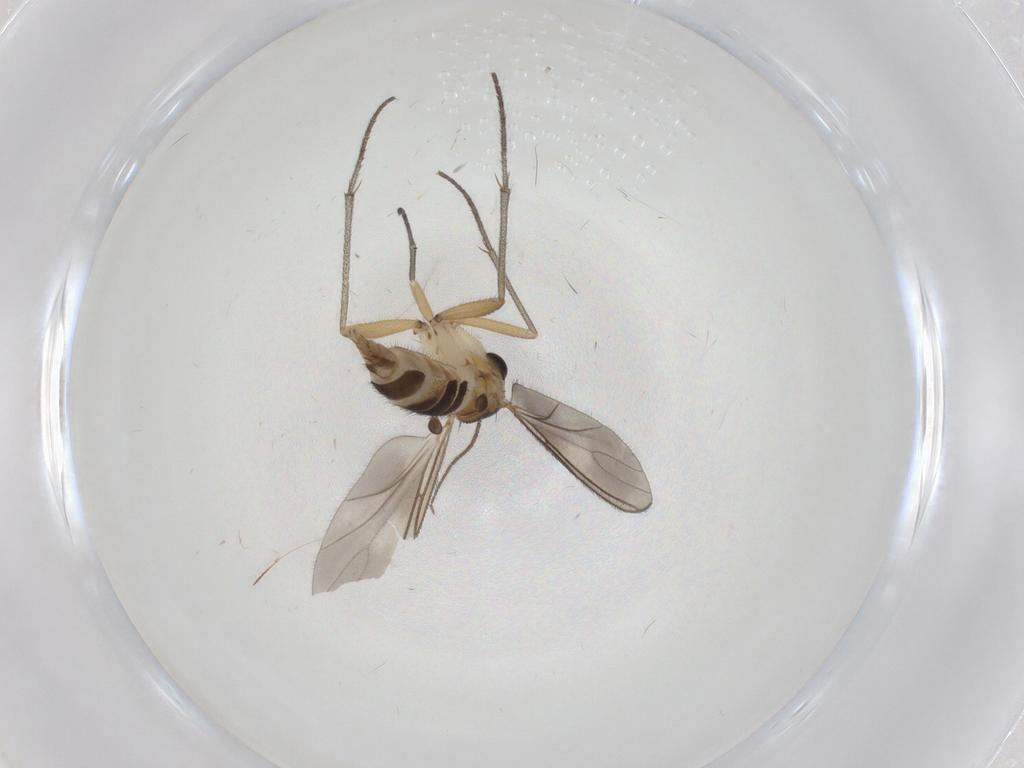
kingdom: Animalia
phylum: Arthropoda
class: Insecta
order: Diptera
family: Sciaridae
